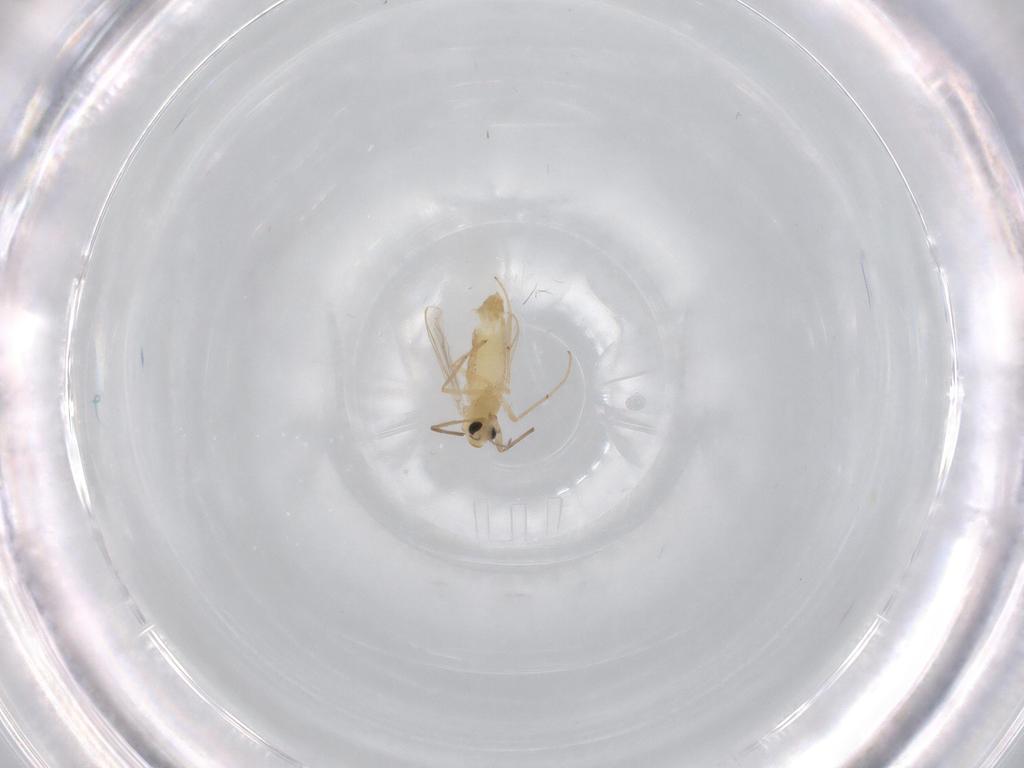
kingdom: Animalia
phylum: Arthropoda
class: Insecta
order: Diptera
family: Chironomidae
